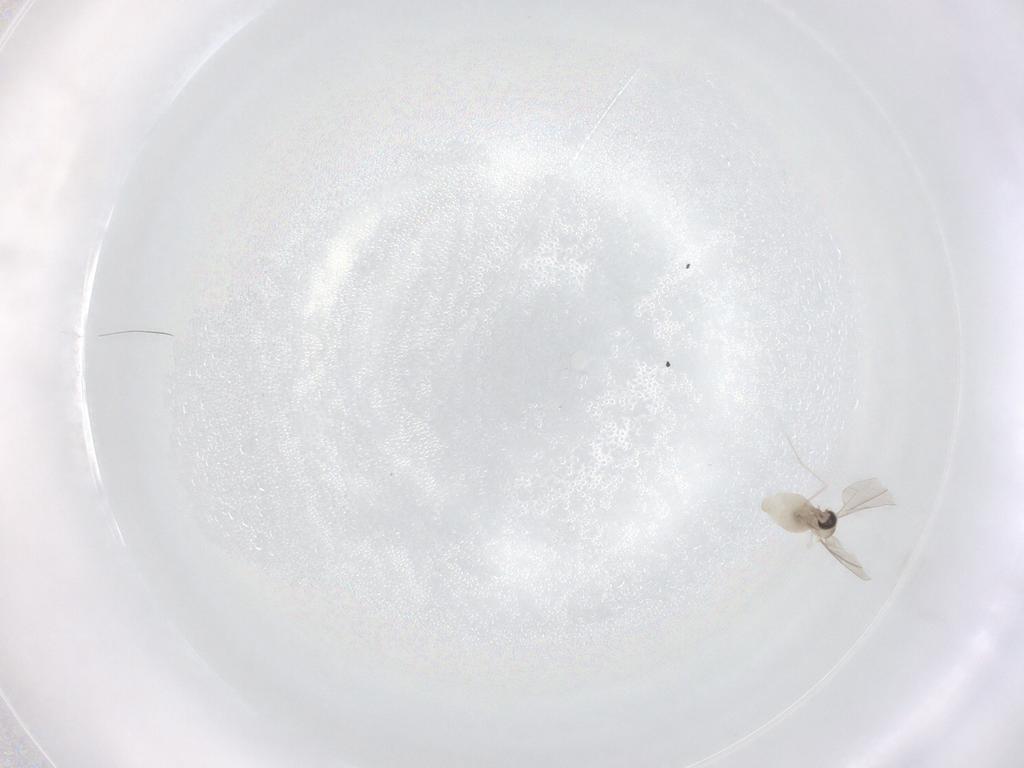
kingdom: Animalia
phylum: Arthropoda
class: Insecta
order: Diptera
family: Cecidomyiidae
